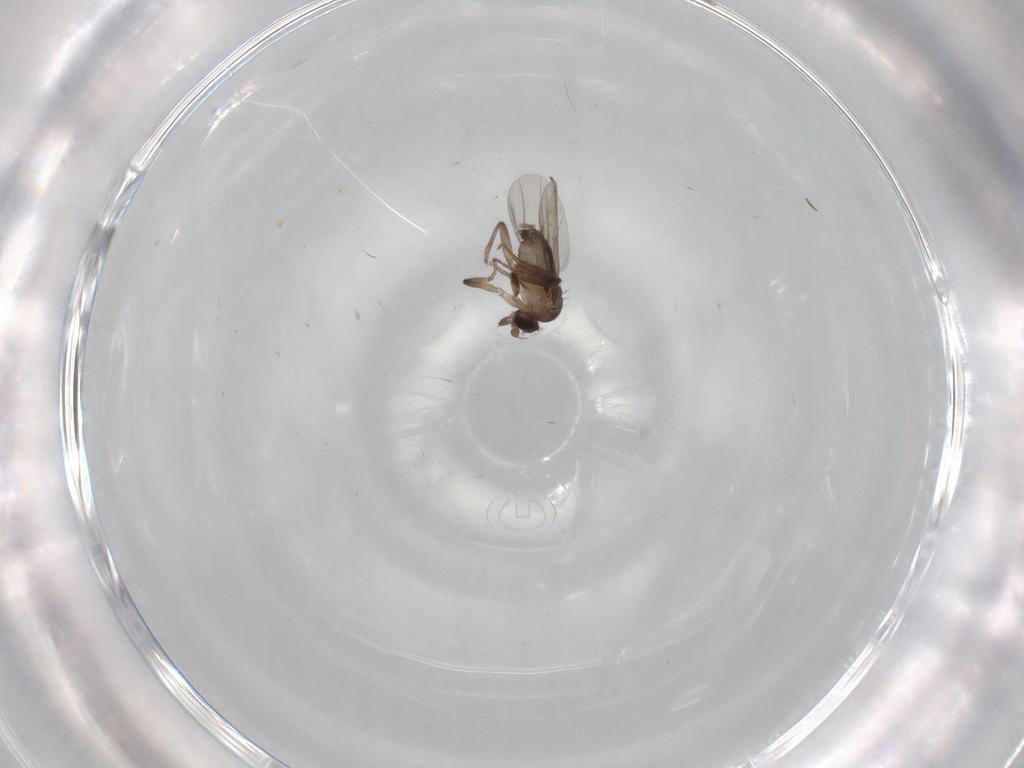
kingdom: Animalia
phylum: Arthropoda
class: Insecta
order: Diptera
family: Phoridae
